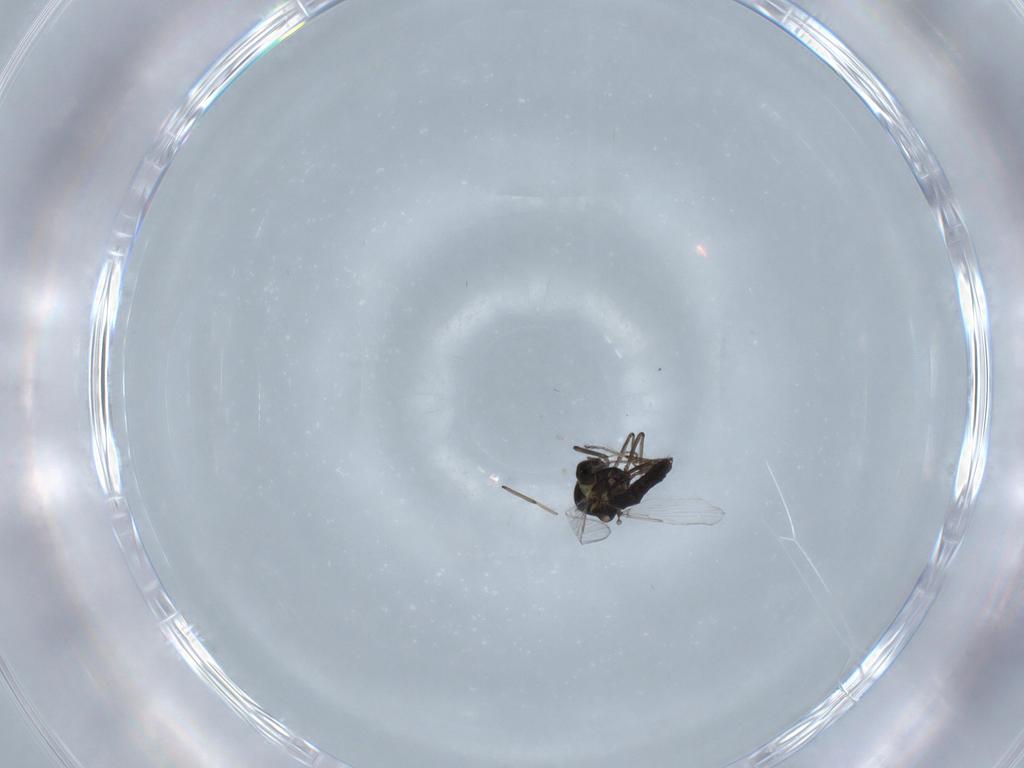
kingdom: Animalia
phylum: Arthropoda
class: Insecta
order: Diptera
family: Ceratopogonidae
